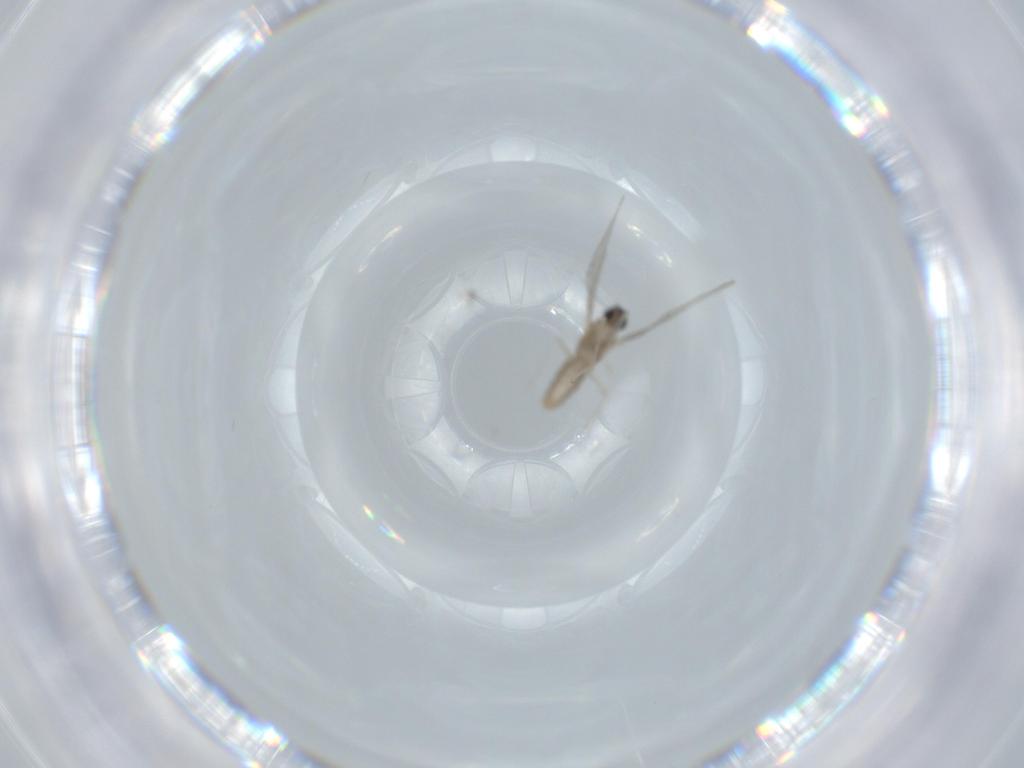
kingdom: Animalia
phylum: Arthropoda
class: Insecta
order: Diptera
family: Cecidomyiidae
